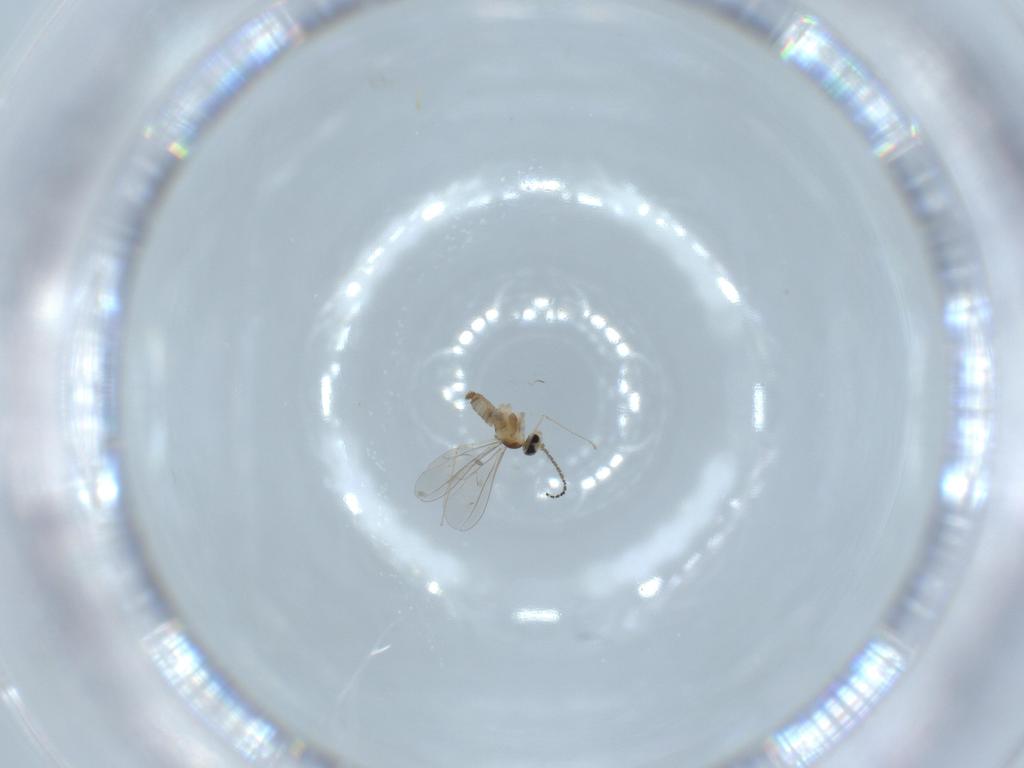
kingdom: Animalia
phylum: Arthropoda
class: Insecta
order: Diptera
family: Cecidomyiidae
